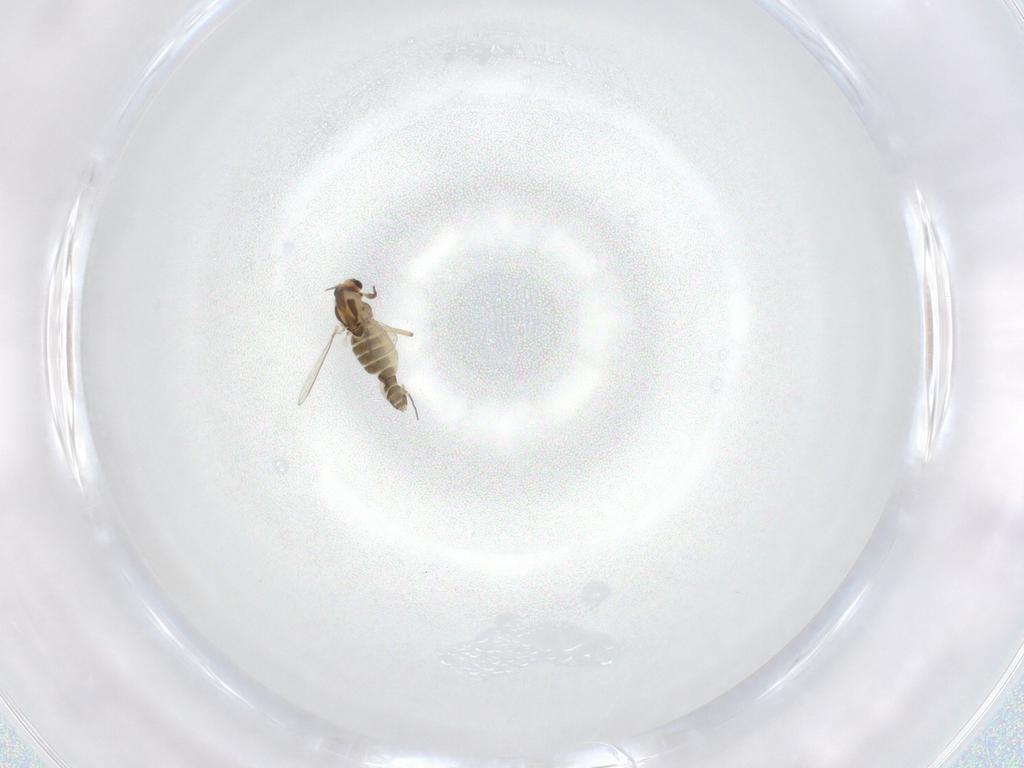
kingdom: Animalia
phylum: Arthropoda
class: Insecta
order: Diptera
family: Chironomidae
